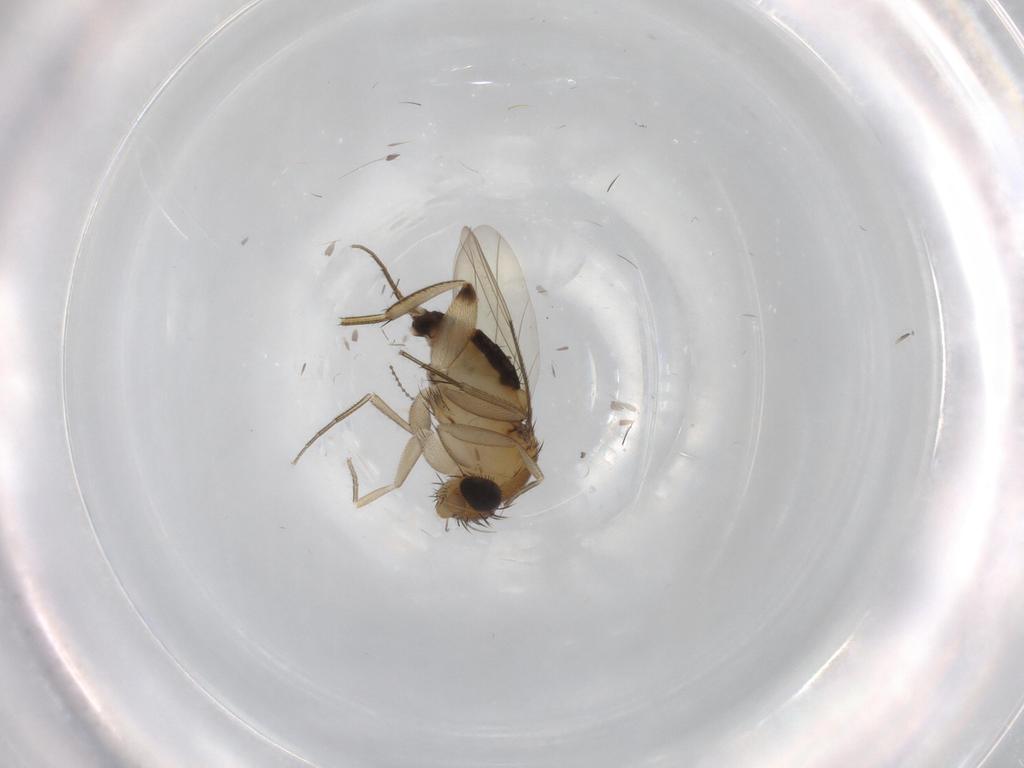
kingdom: Animalia
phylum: Arthropoda
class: Insecta
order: Diptera
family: Phoridae
